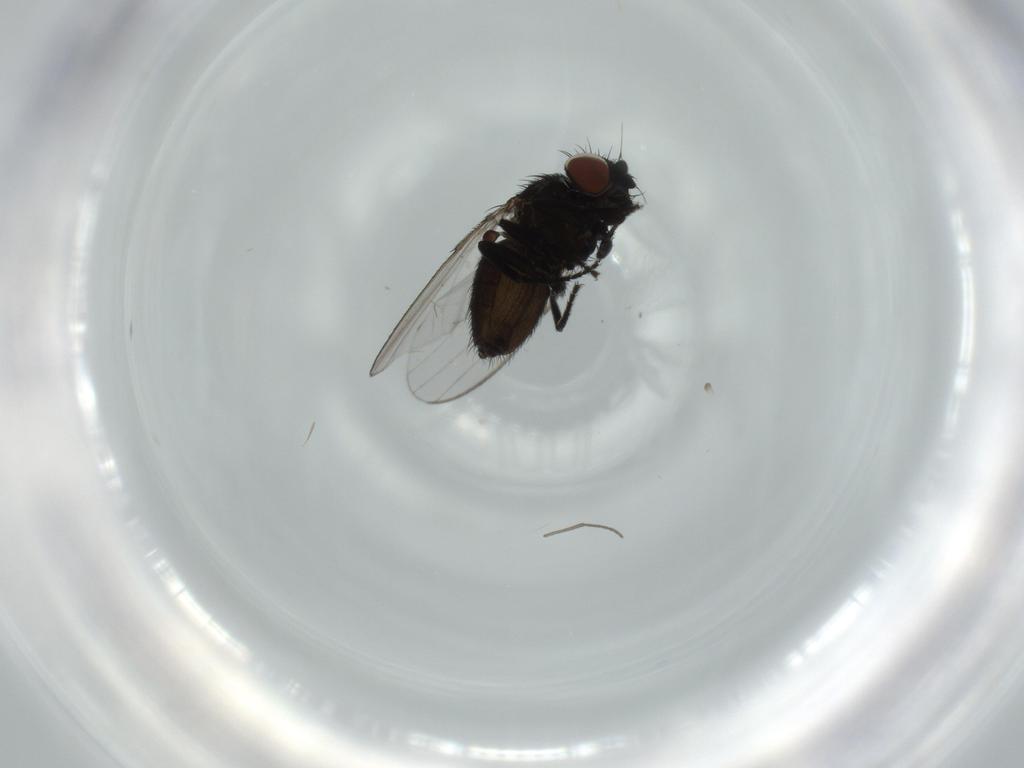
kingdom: Animalia
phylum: Arthropoda
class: Insecta
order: Diptera
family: Milichiidae
